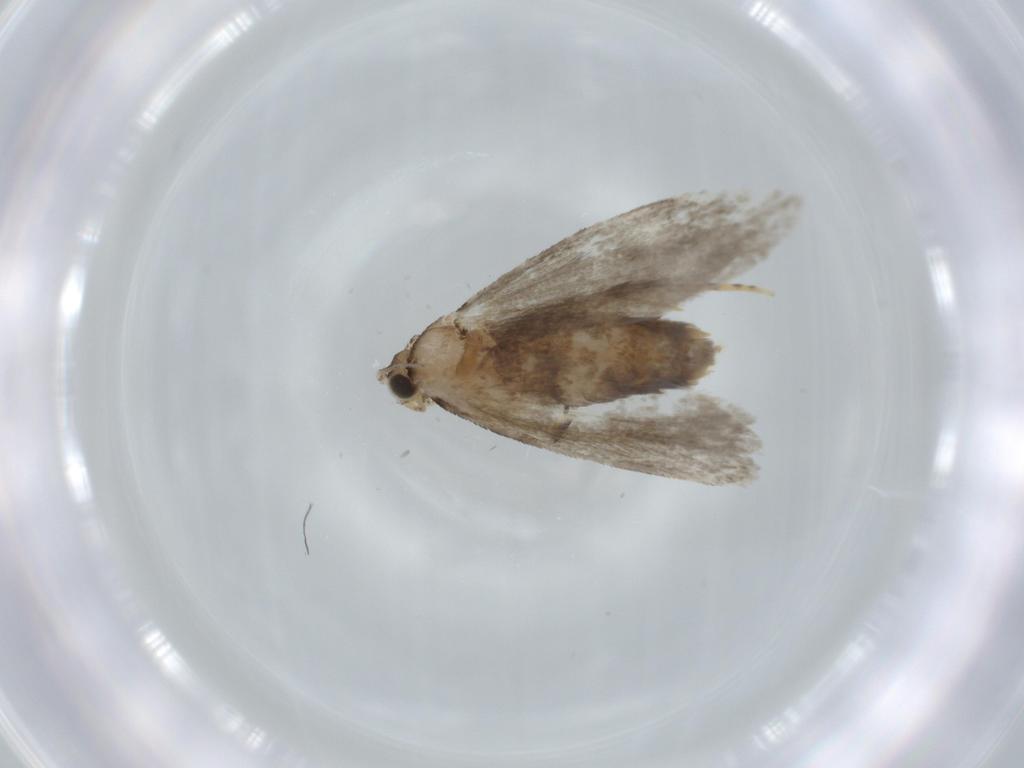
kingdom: Animalia
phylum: Arthropoda
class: Insecta
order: Lepidoptera
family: Tineidae
